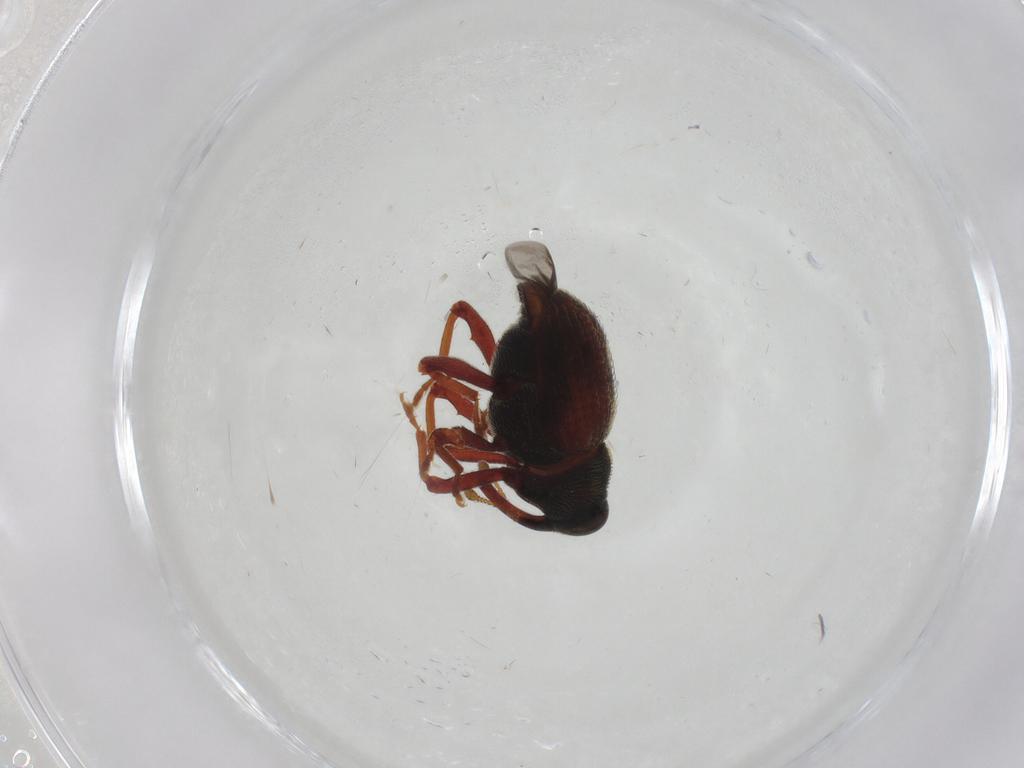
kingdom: Animalia
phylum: Arthropoda
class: Insecta
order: Coleoptera
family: Curculionidae
